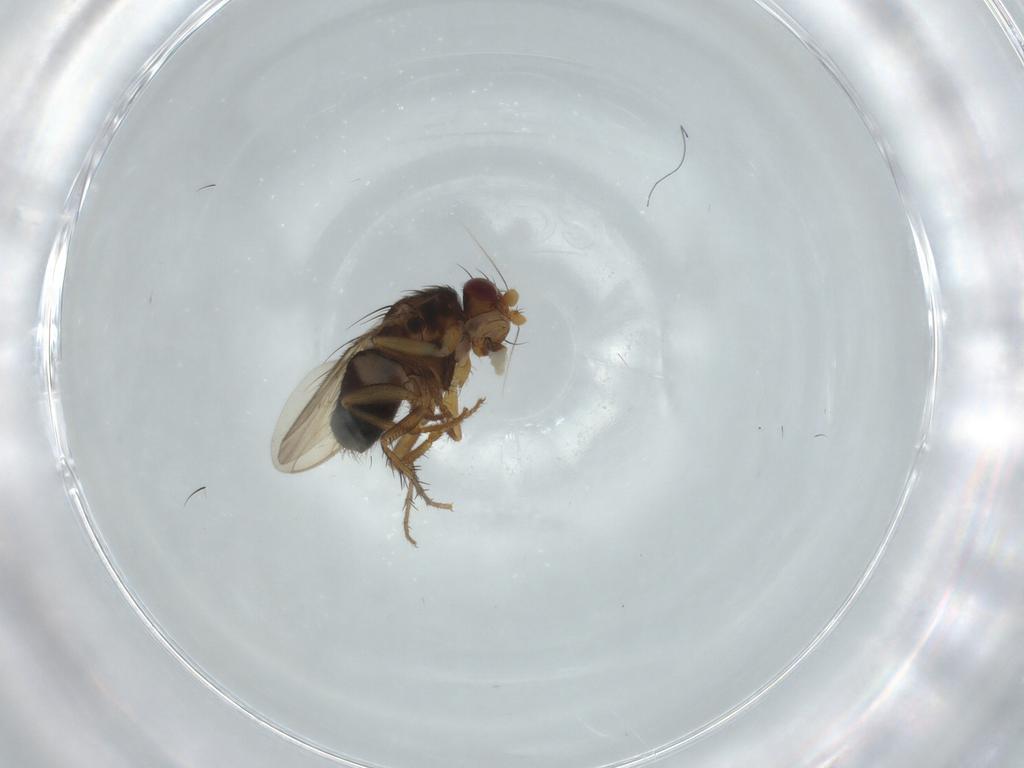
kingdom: Animalia
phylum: Arthropoda
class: Insecta
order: Diptera
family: Sphaeroceridae
